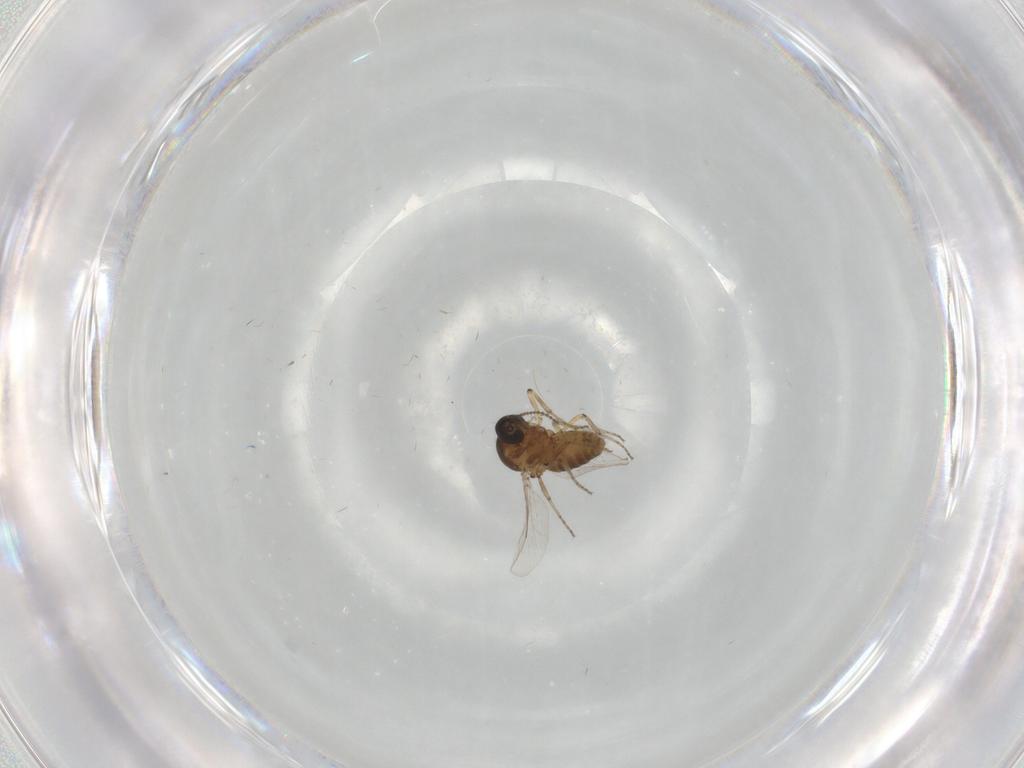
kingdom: Animalia
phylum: Arthropoda
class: Insecta
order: Diptera
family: Ceratopogonidae
